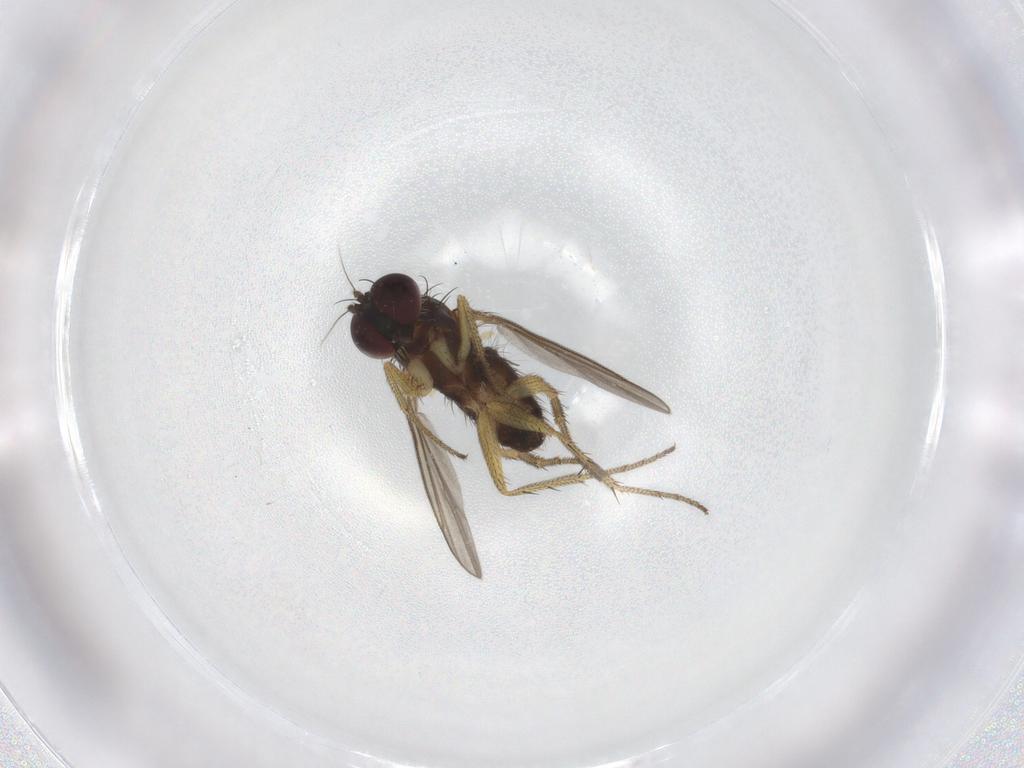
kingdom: Animalia
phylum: Arthropoda
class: Insecta
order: Diptera
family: Dolichopodidae
